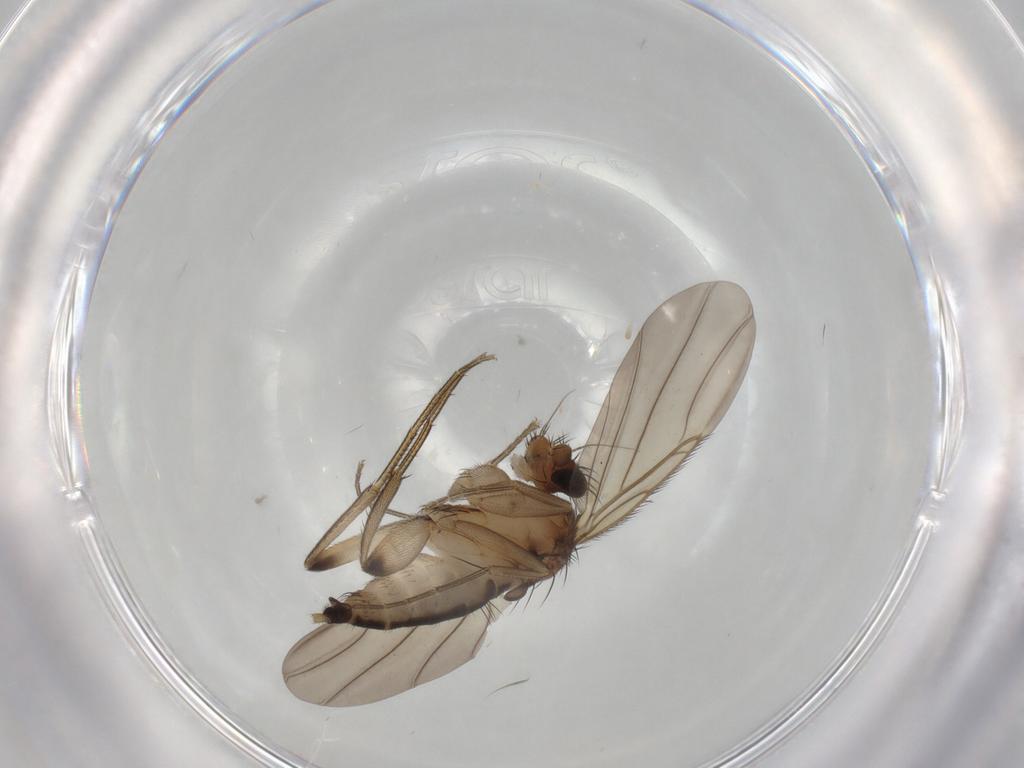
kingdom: Animalia
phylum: Arthropoda
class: Insecta
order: Diptera
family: Phoridae
